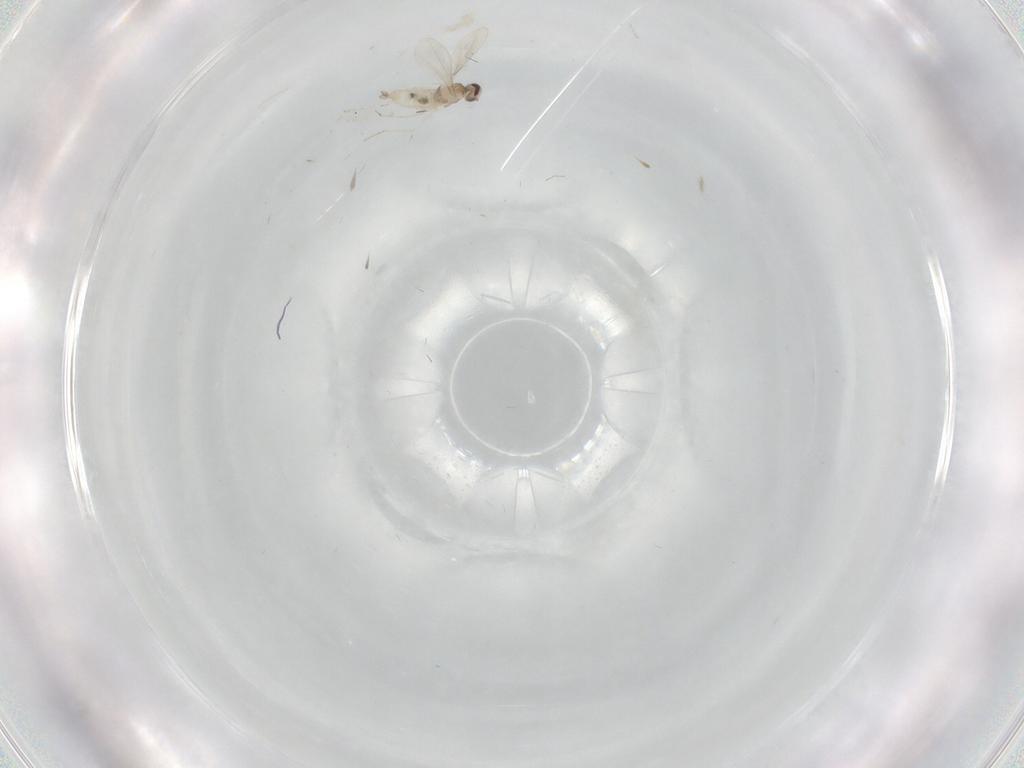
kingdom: Animalia
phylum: Arthropoda
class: Insecta
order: Diptera
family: Cecidomyiidae
